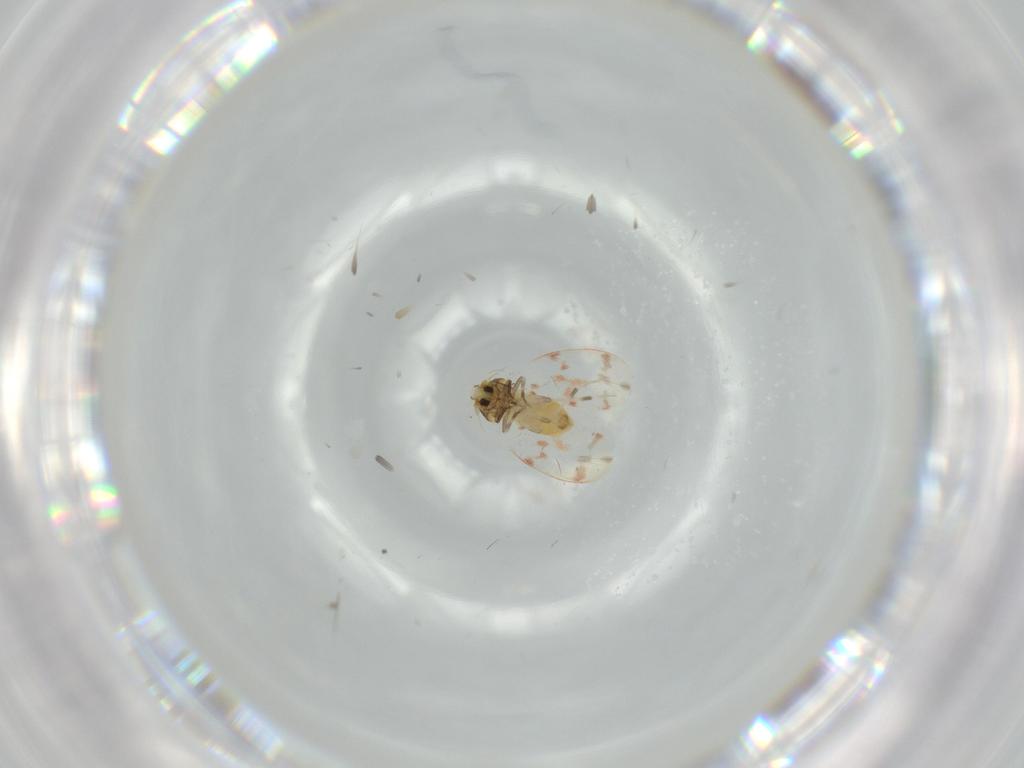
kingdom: Animalia
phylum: Arthropoda
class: Insecta
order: Hemiptera
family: Aleyrodidae
